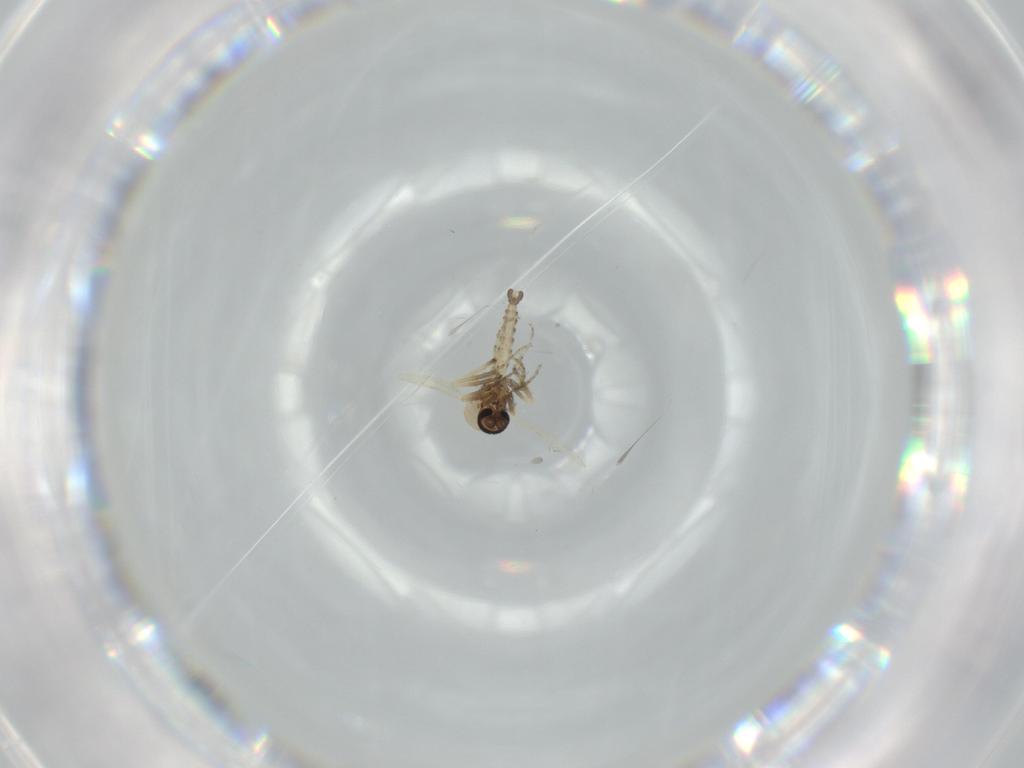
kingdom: Animalia
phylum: Arthropoda
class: Insecta
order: Diptera
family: Ceratopogonidae
